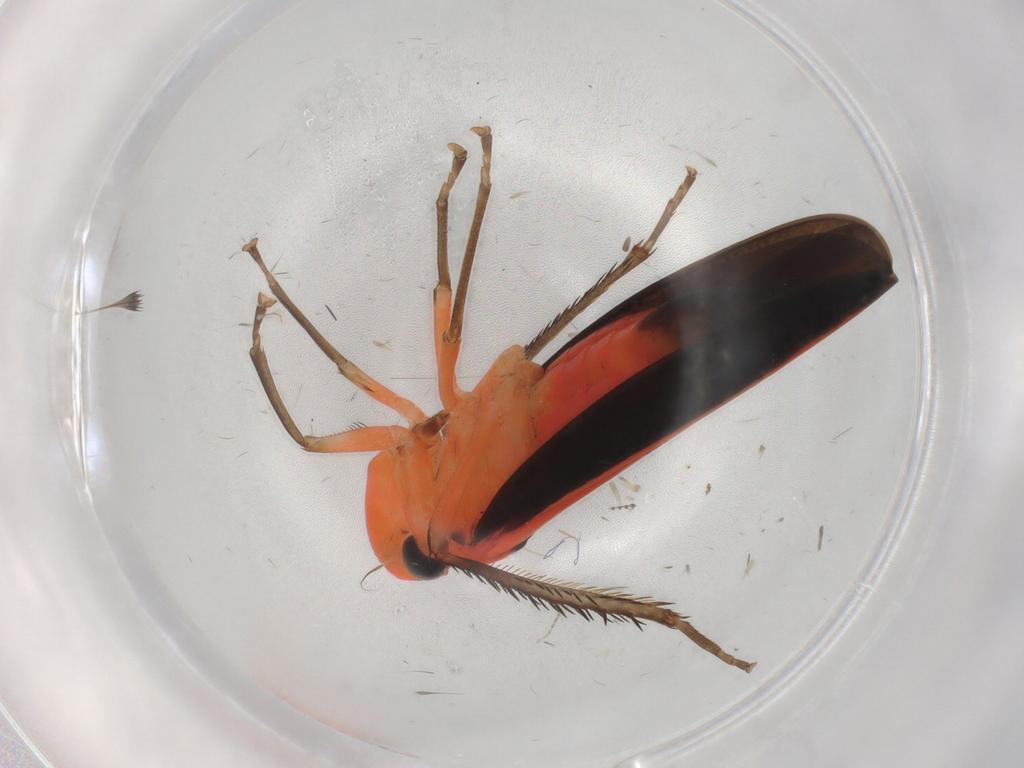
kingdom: Animalia
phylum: Arthropoda
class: Insecta
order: Hemiptera
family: Cicadellidae
